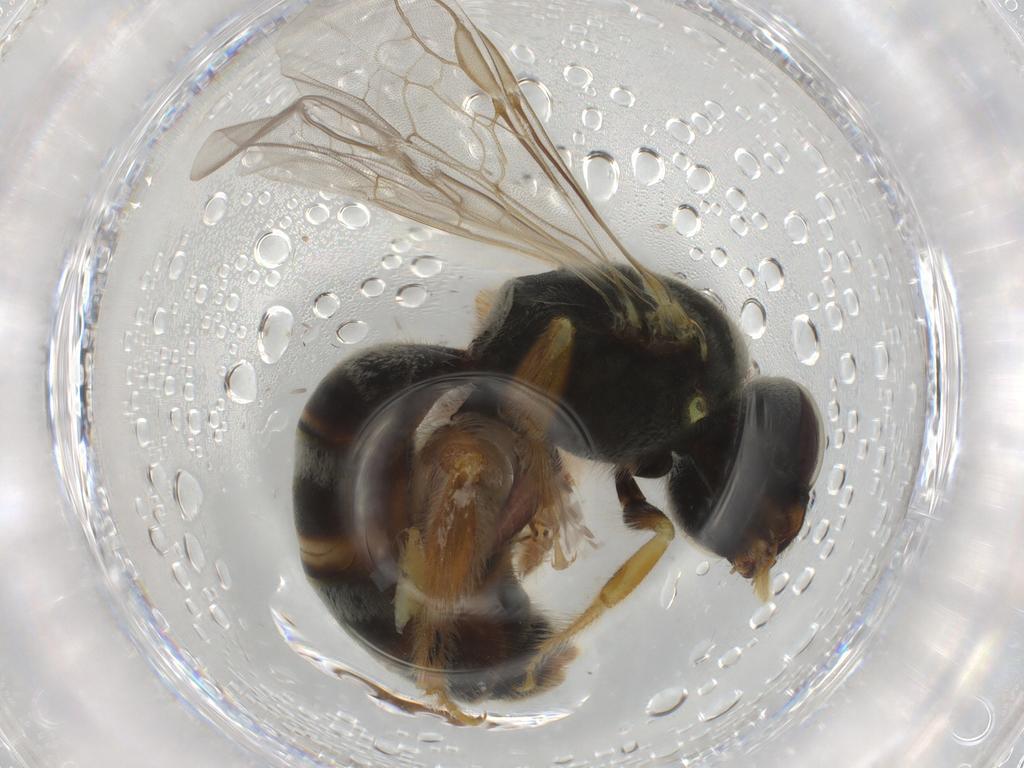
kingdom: Animalia
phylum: Arthropoda
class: Insecta
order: Hymenoptera
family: Halictidae
